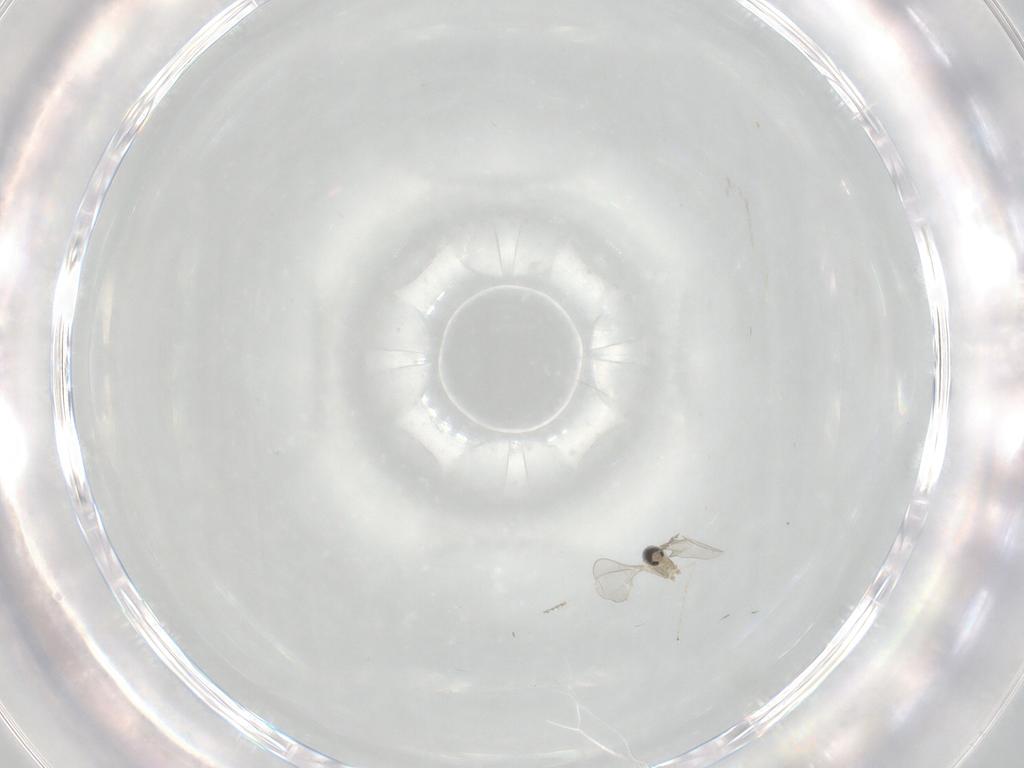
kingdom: Animalia
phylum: Arthropoda
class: Insecta
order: Diptera
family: Cecidomyiidae
